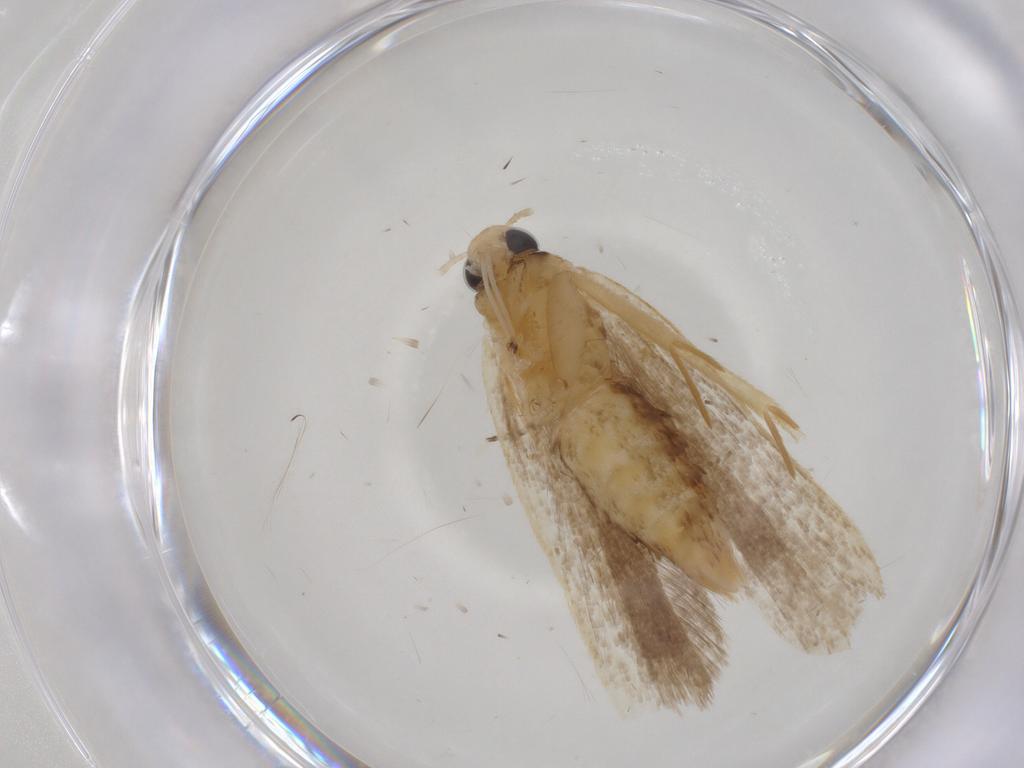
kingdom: Animalia
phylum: Arthropoda
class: Insecta
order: Lepidoptera
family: Gelechiidae
